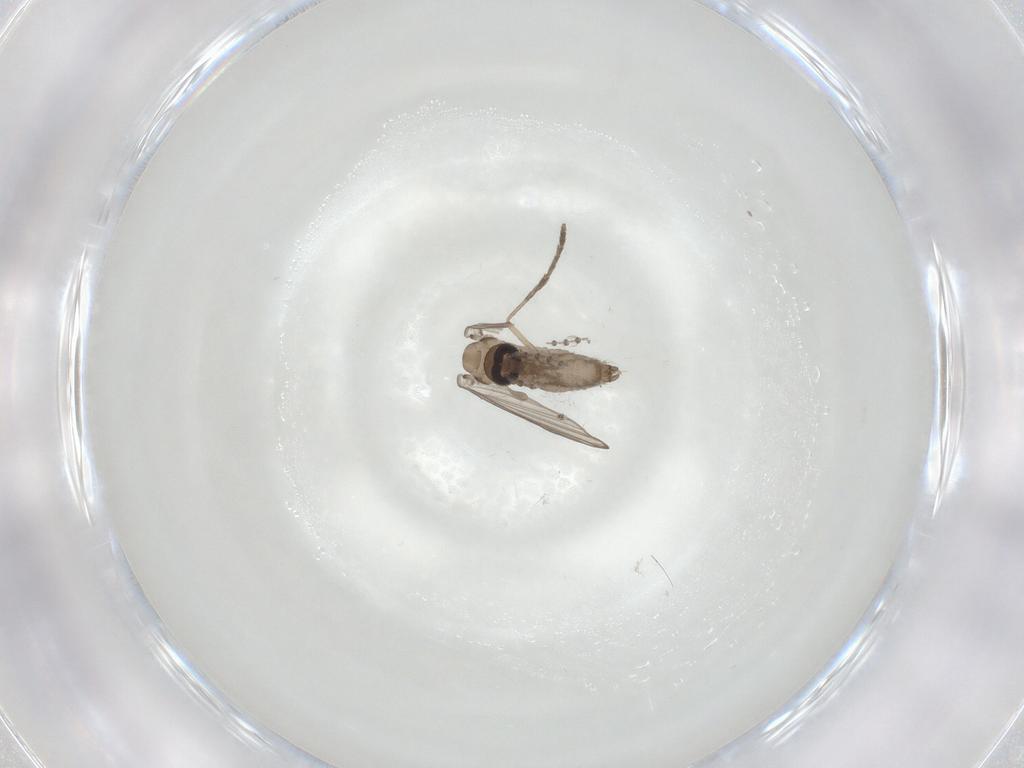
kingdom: Animalia
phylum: Arthropoda
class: Insecta
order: Diptera
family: Psychodidae
